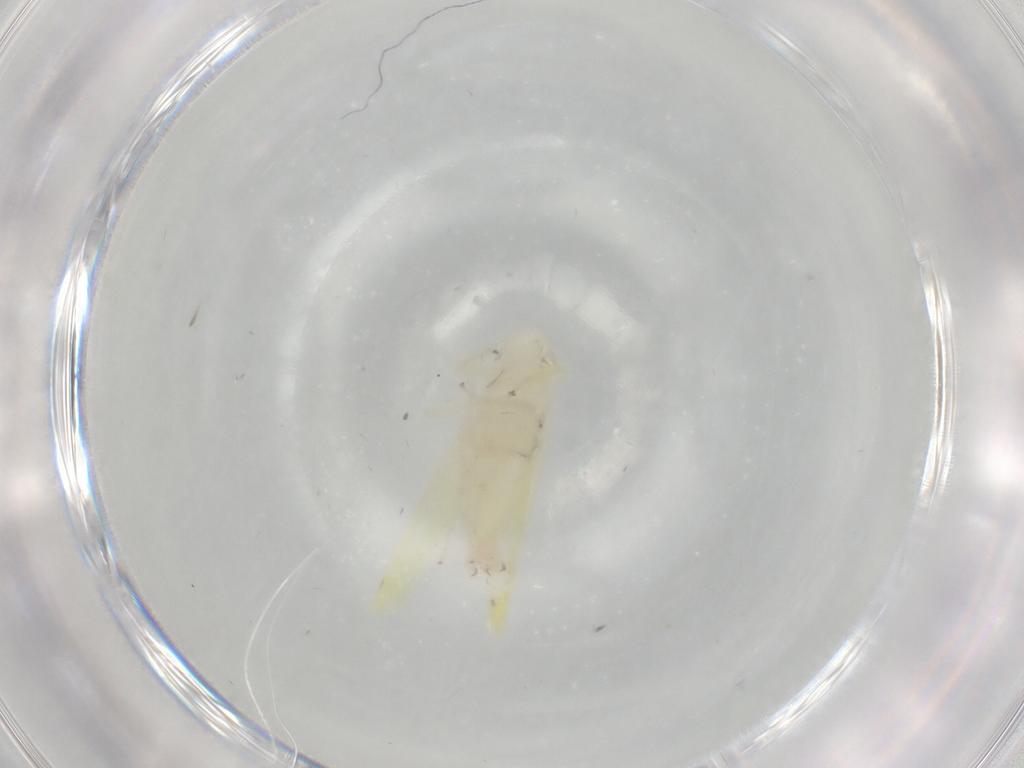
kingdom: Animalia
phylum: Arthropoda
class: Insecta
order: Hemiptera
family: Cicadellidae
